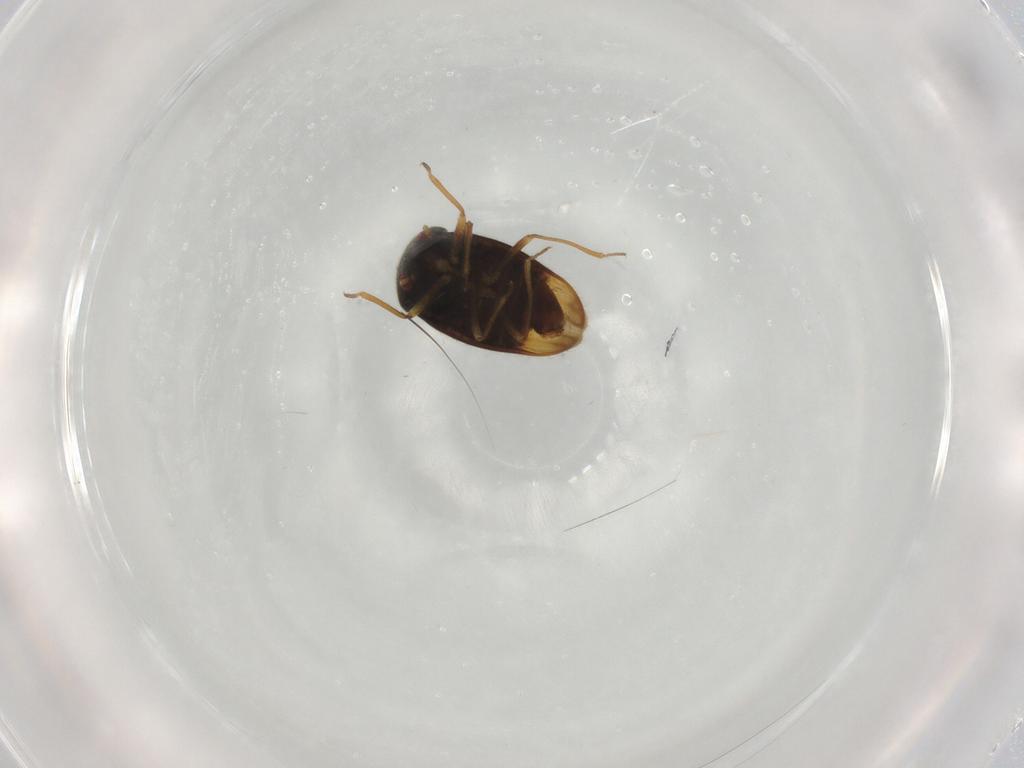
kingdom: Animalia
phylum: Arthropoda
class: Insecta
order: Hemiptera
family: Schizopteridae
